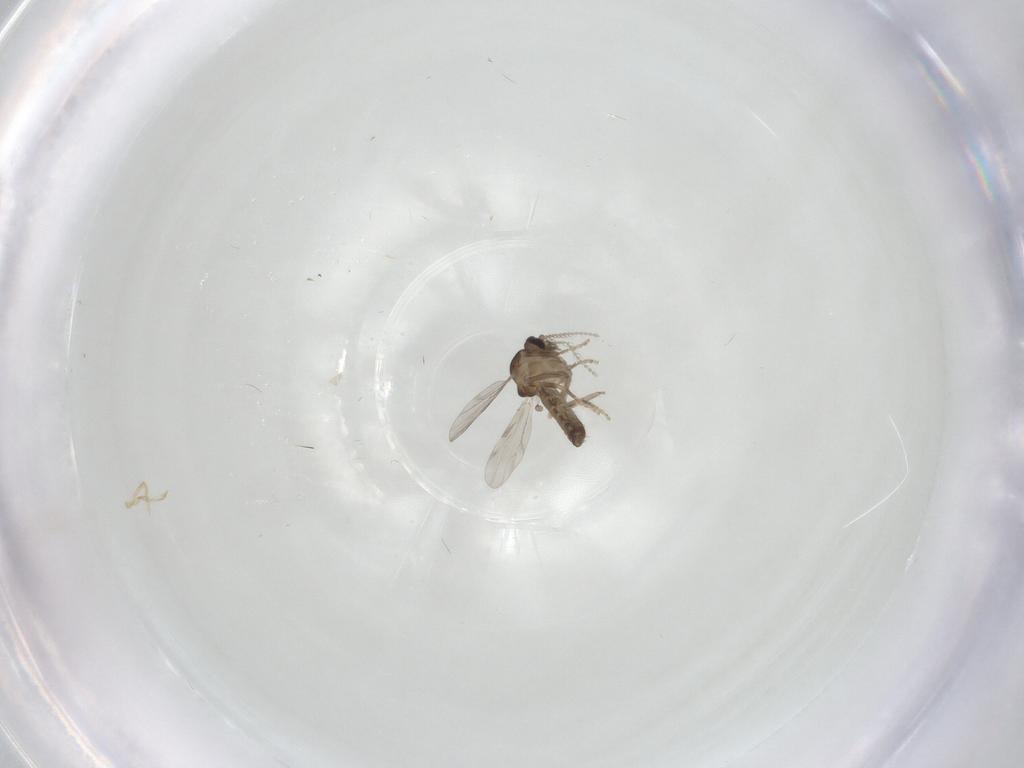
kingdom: Animalia
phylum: Arthropoda
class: Insecta
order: Diptera
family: Ceratopogonidae
